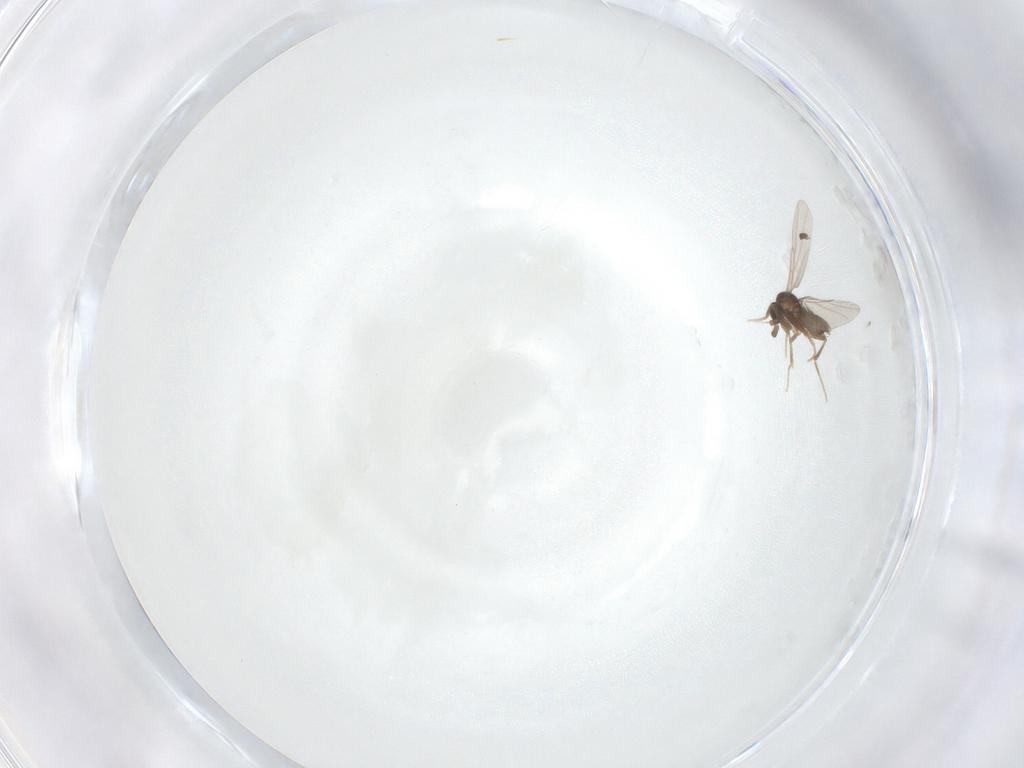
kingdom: Animalia
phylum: Arthropoda
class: Insecta
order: Diptera
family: Phoridae
